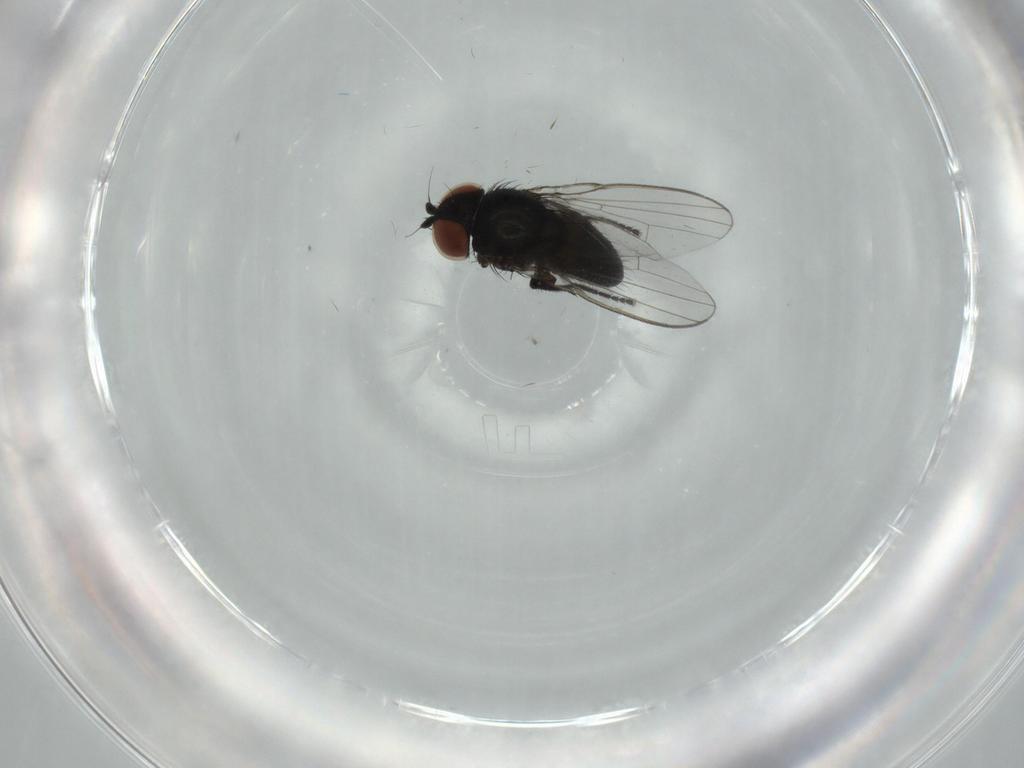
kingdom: Animalia
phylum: Arthropoda
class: Insecta
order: Diptera
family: Milichiidae
